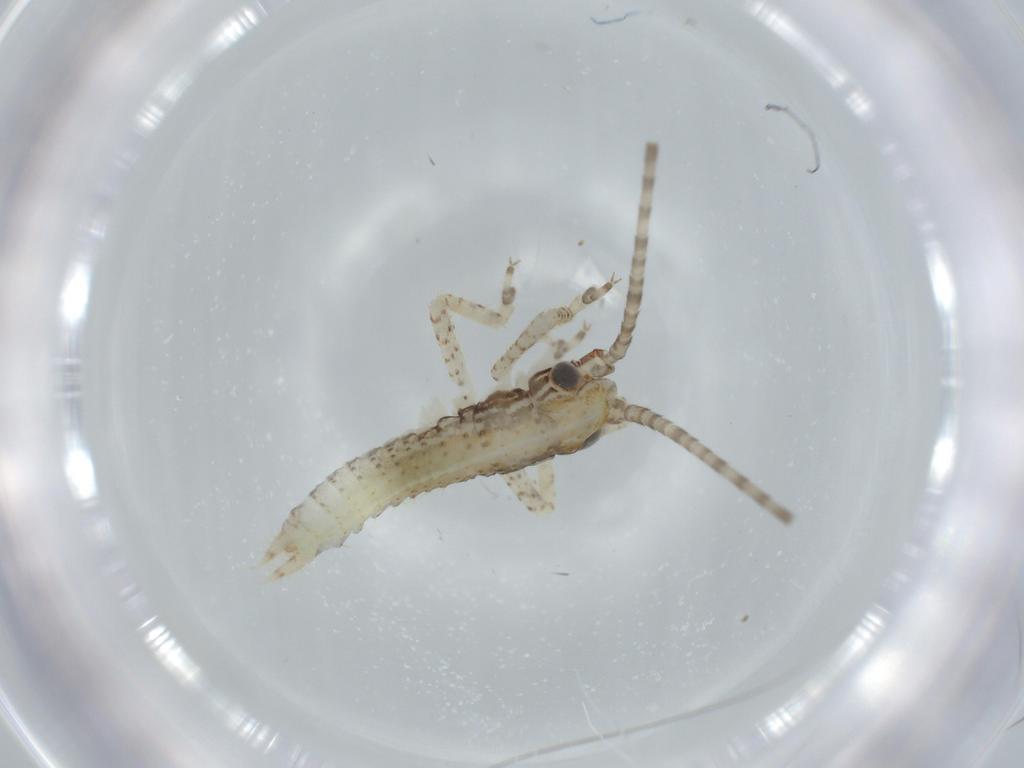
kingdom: Animalia
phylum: Arthropoda
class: Insecta
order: Orthoptera
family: Gryllidae
